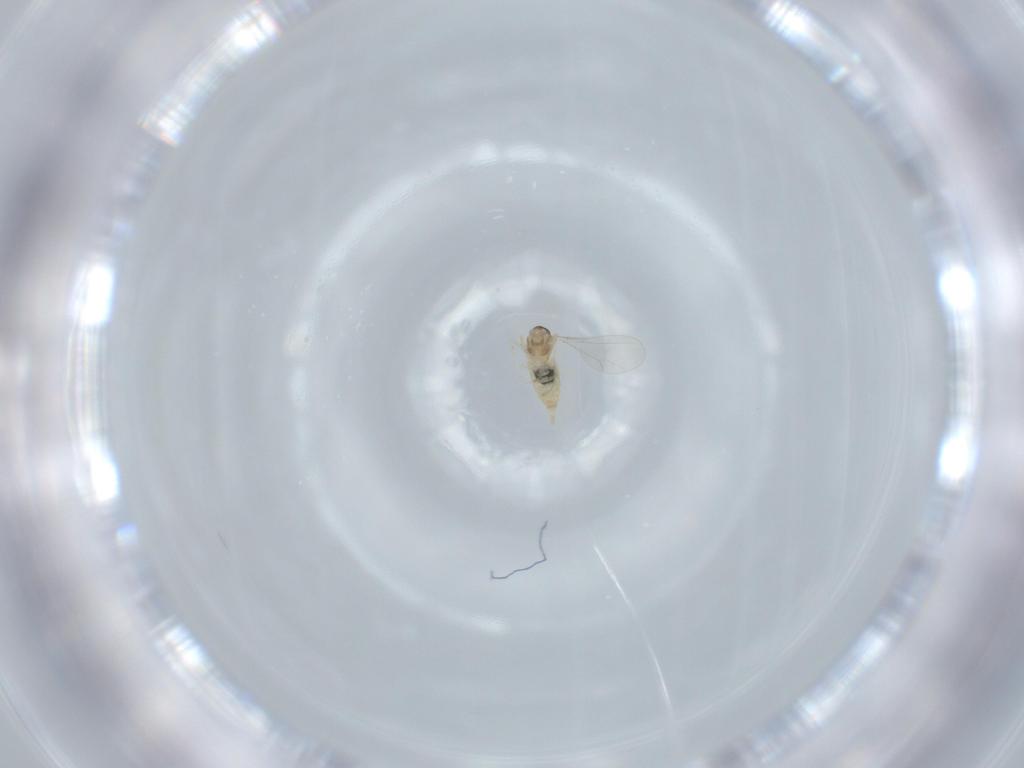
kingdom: Animalia
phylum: Arthropoda
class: Insecta
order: Diptera
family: Cecidomyiidae
